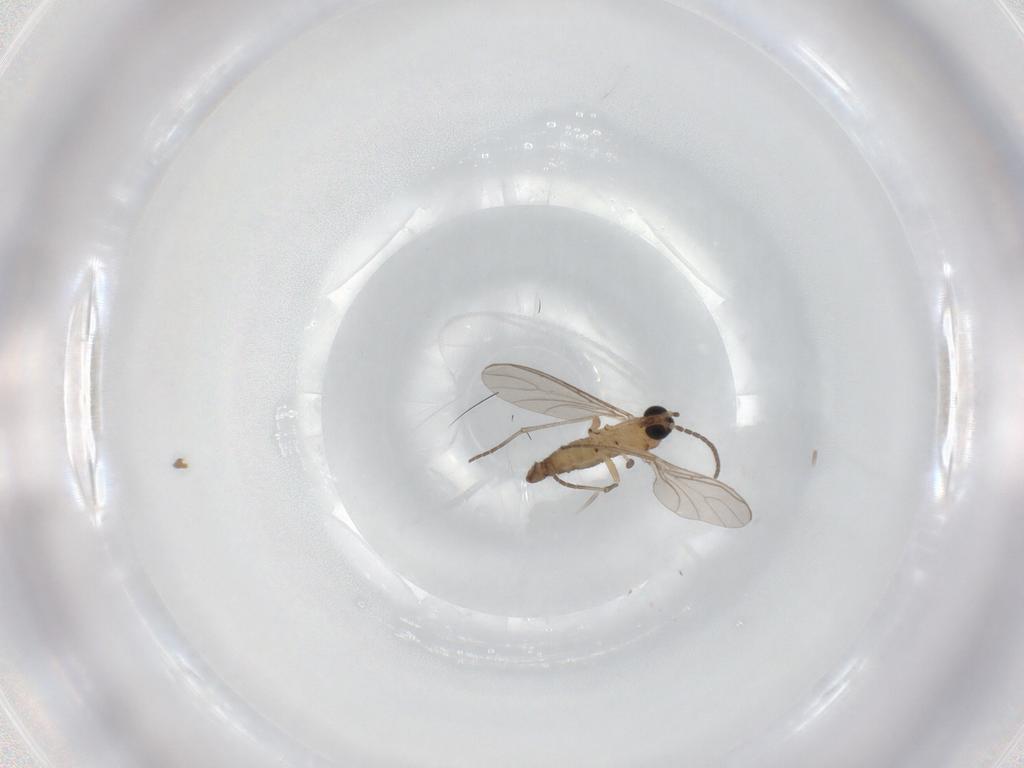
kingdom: Animalia
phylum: Arthropoda
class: Insecta
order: Diptera
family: Sciaridae
